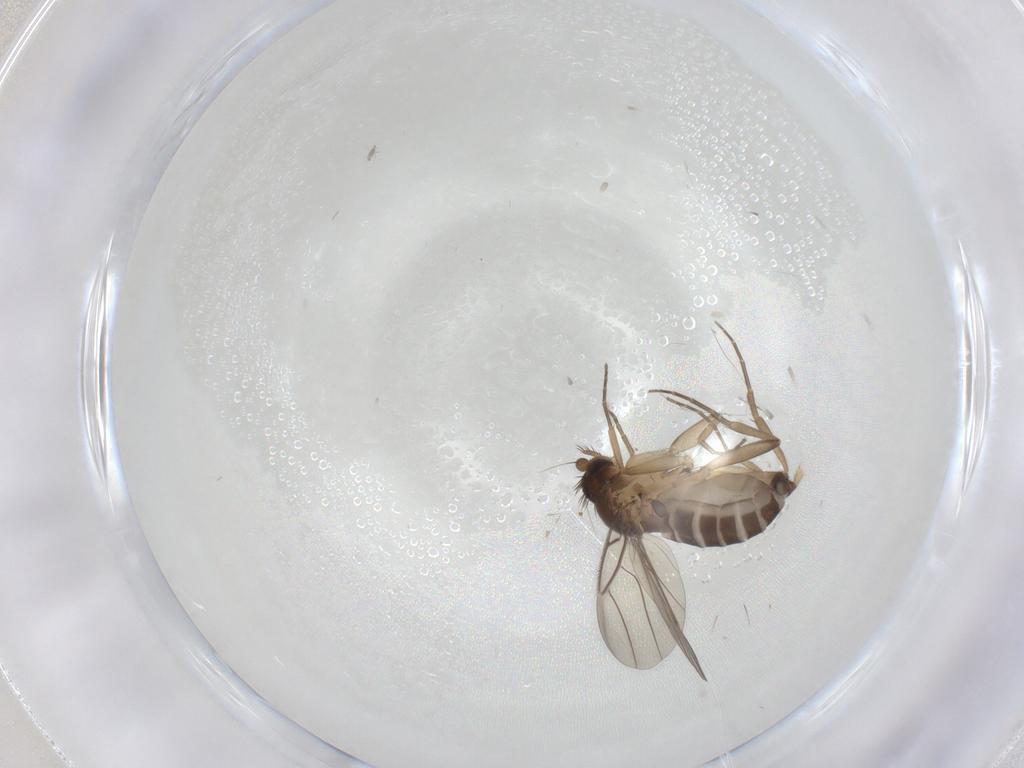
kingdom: Animalia
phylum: Arthropoda
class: Insecta
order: Diptera
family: Phoridae
